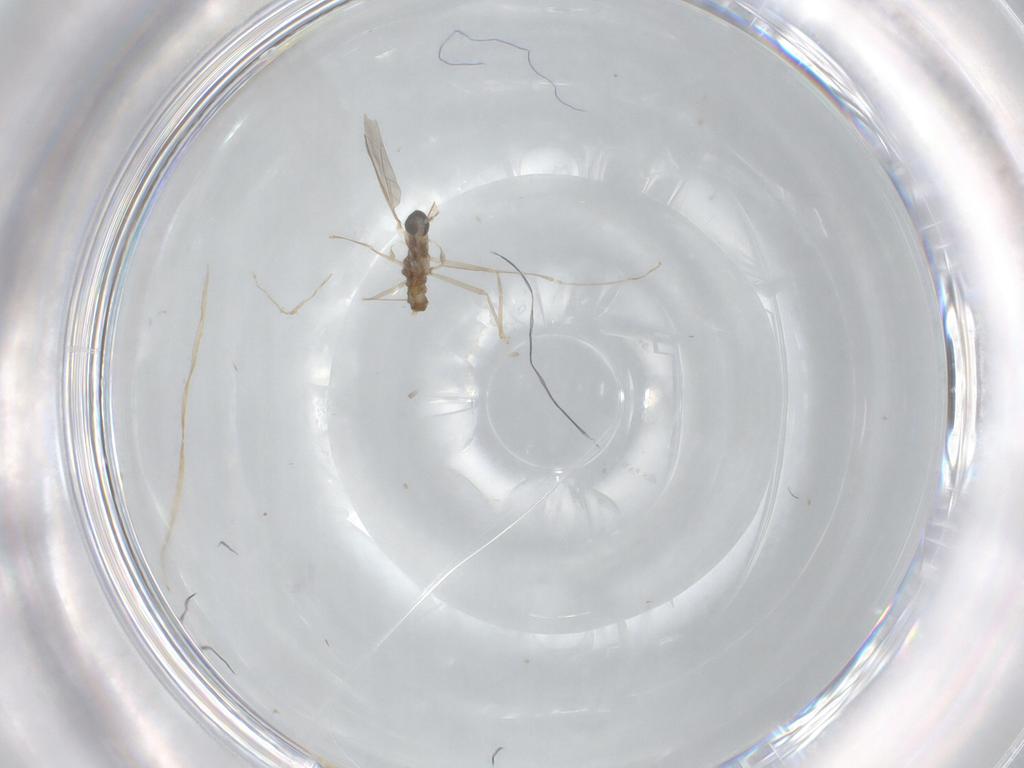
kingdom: Animalia
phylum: Arthropoda
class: Insecta
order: Diptera
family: Cecidomyiidae
